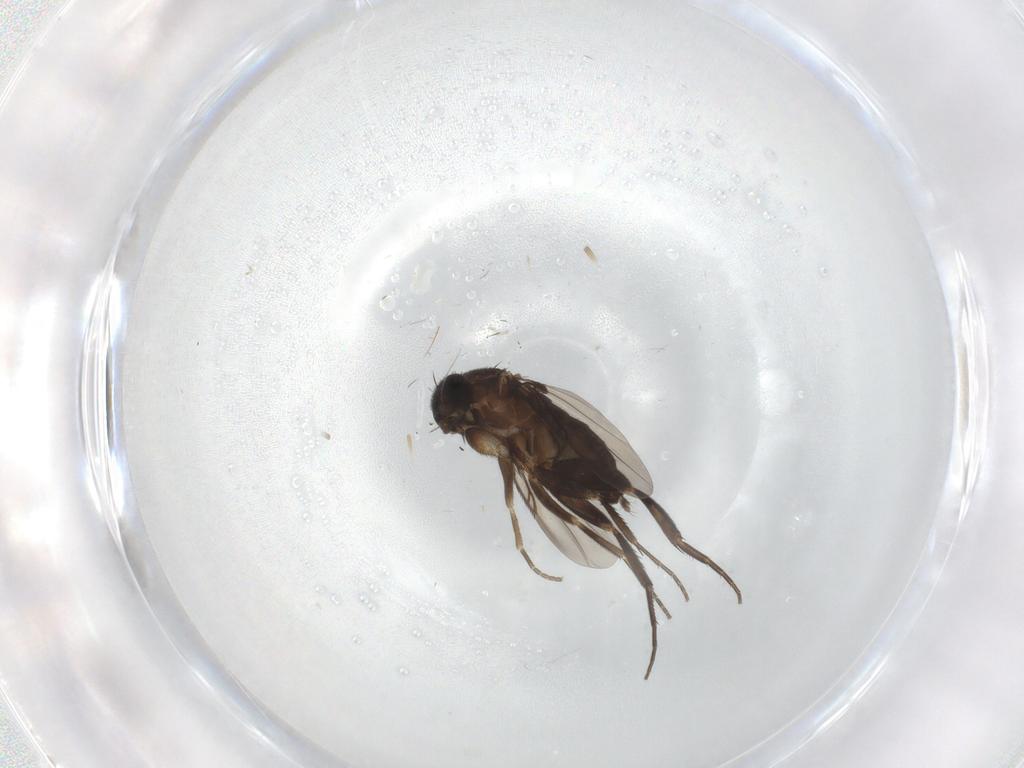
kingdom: Animalia
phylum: Arthropoda
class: Insecta
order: Diptera
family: Phoridae
